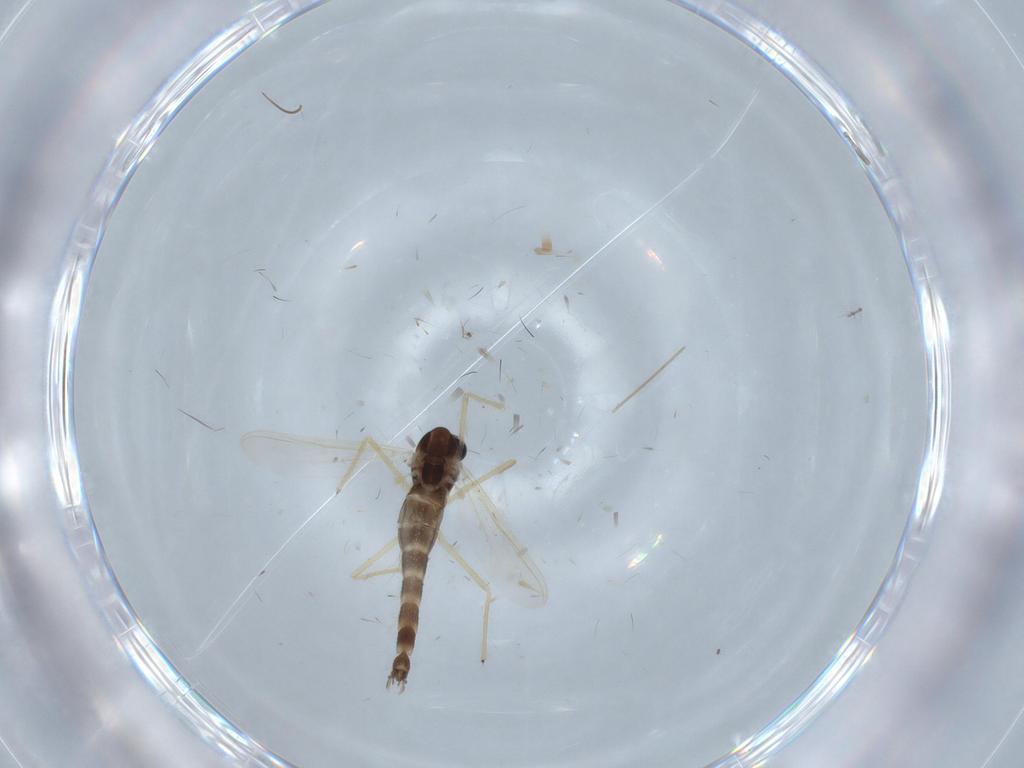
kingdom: Animalia
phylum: Arthropoda
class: Insecta
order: Diptera
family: Chironomidae
